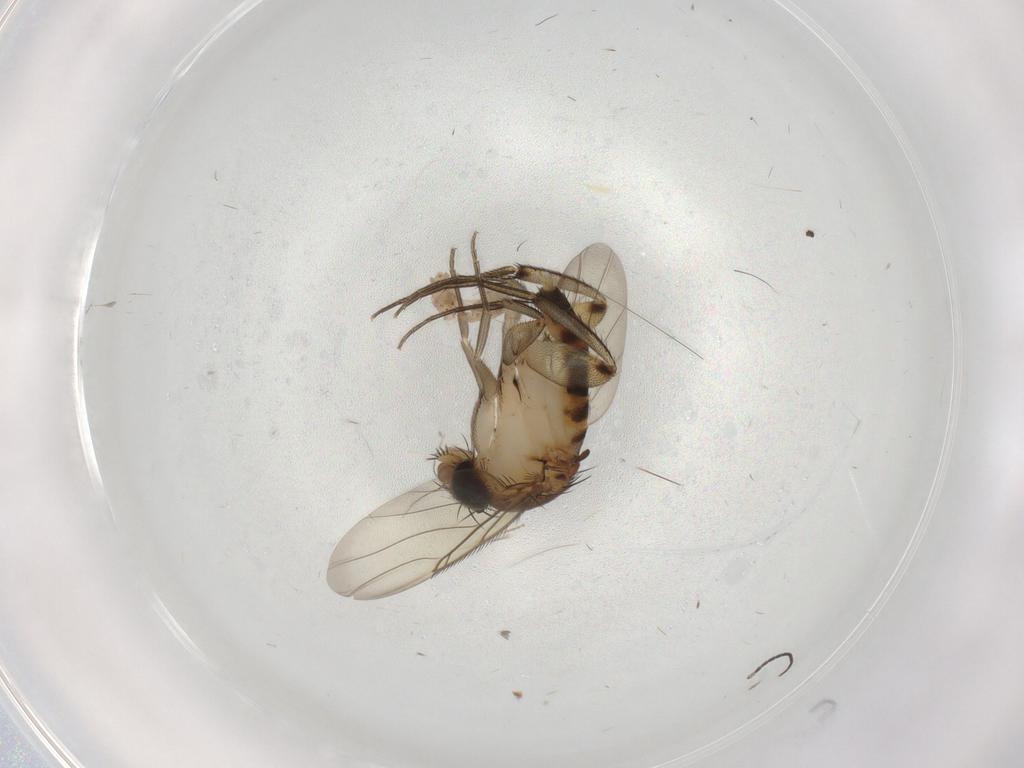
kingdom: Animalia
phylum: Arthropoda
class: Insecta
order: Diptera
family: Phoridae
